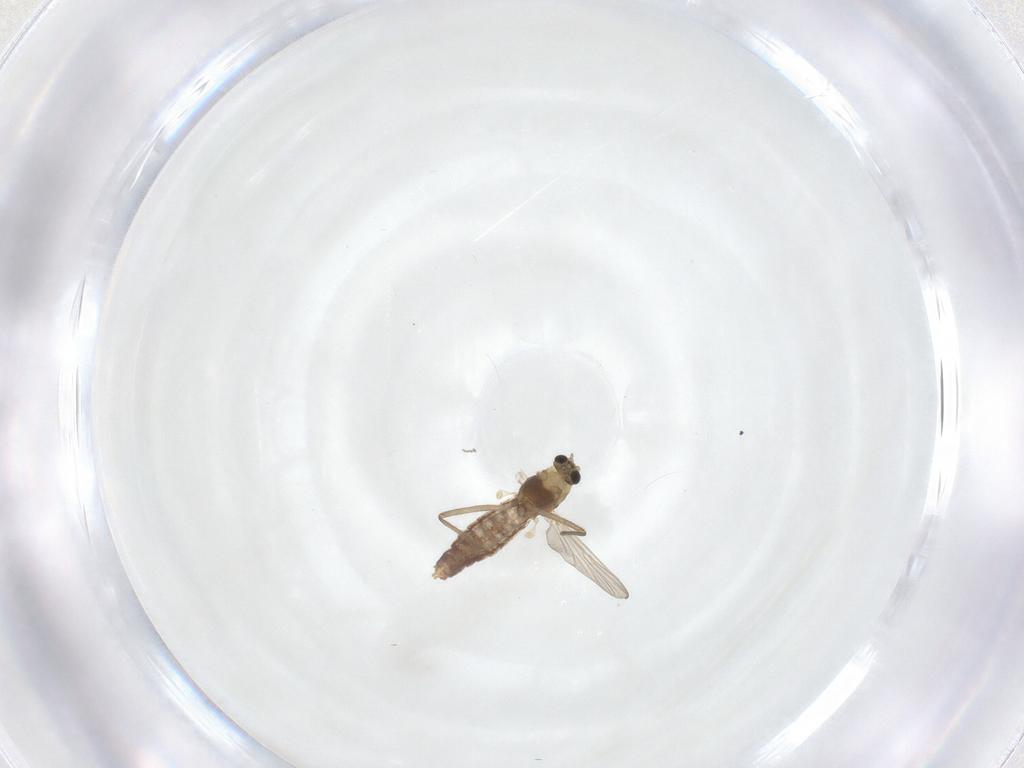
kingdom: Animalia
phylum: Arthropoda
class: Insecta
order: Diptera
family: Chironomidae
